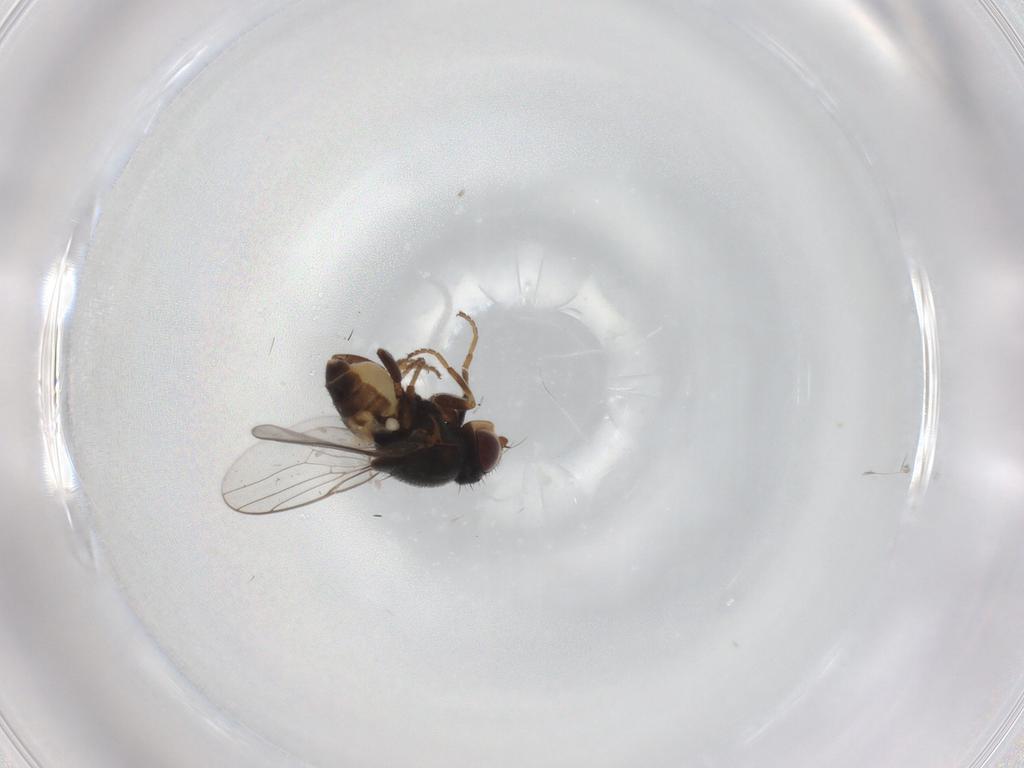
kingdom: Animalia
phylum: Arthropoda
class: Insecta
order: Diptera
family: Chloropidae
